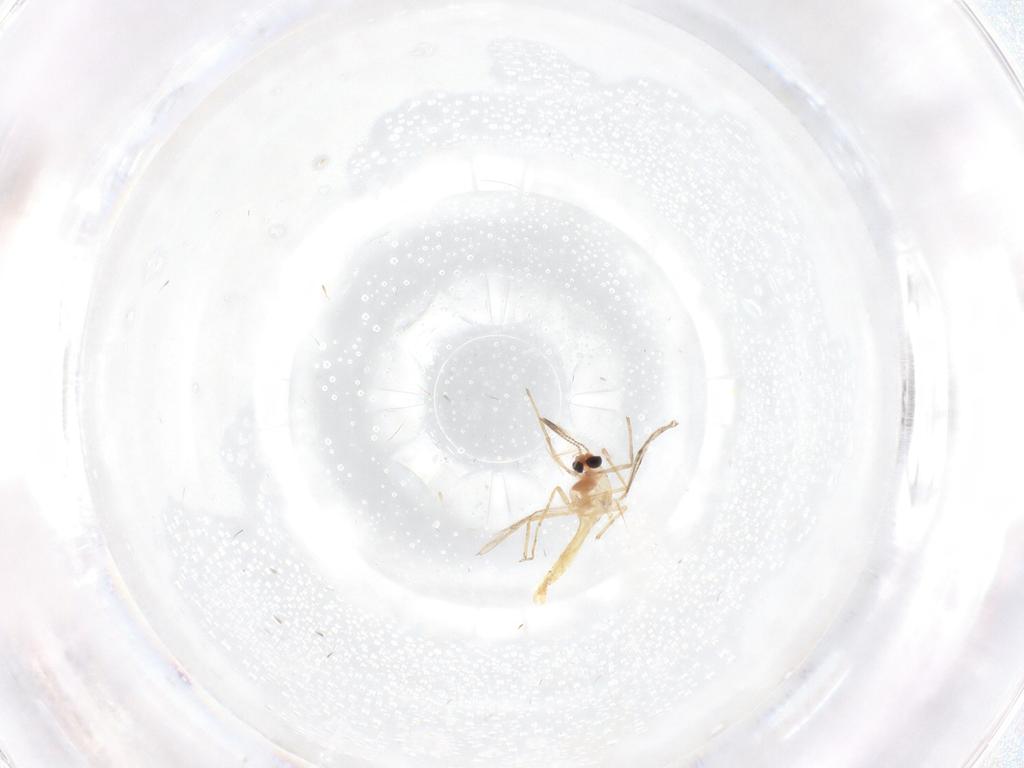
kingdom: Animalia
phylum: Arthropoda
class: Insecta
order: Diptera
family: Chironomidae
